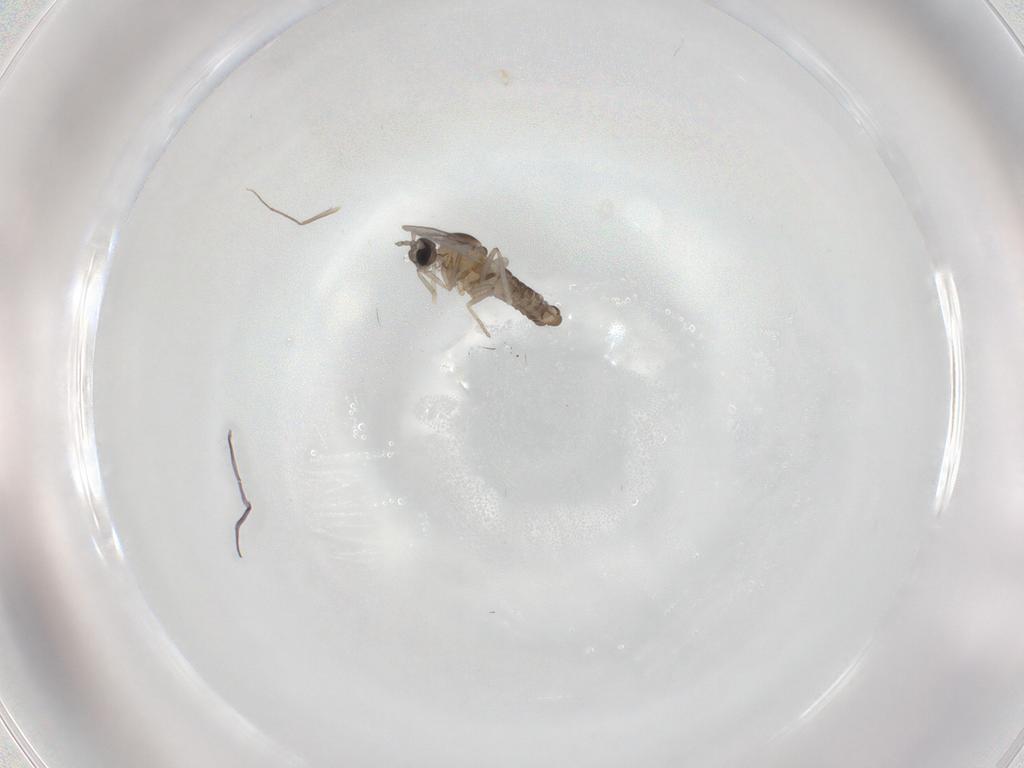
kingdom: Animalia
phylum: Arthropoda
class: Insecta
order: Diptera
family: Cecidomyiidae
